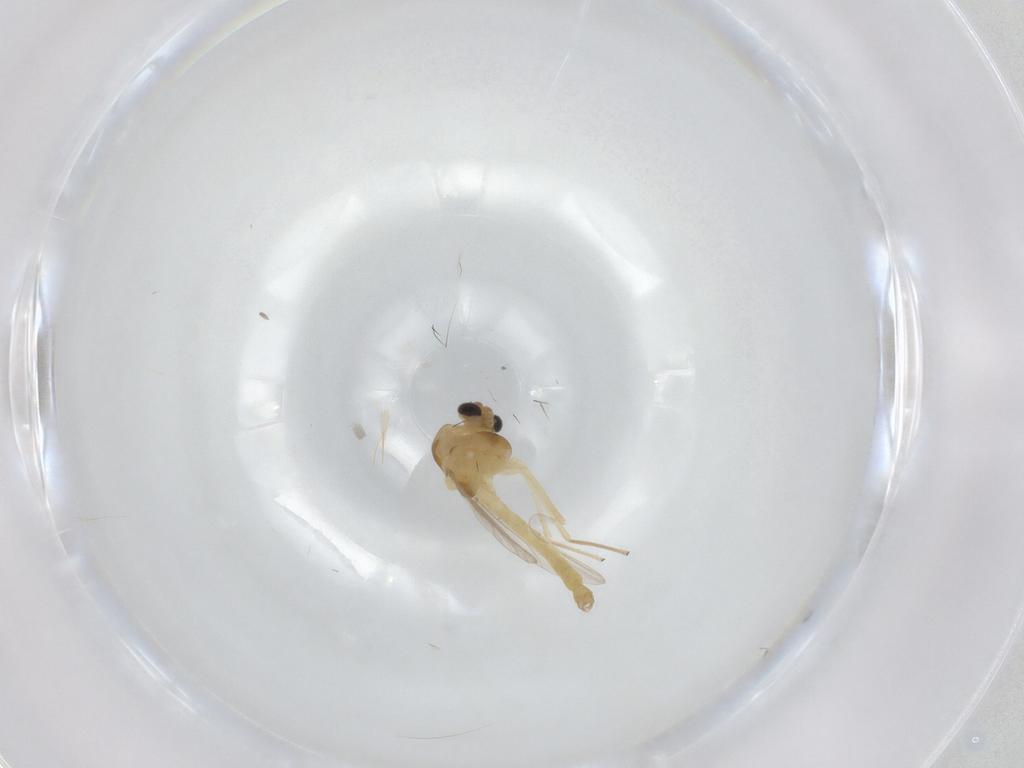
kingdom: Animalia
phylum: Arthropoda
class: Insecta
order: Diptera
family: Chironomidae
